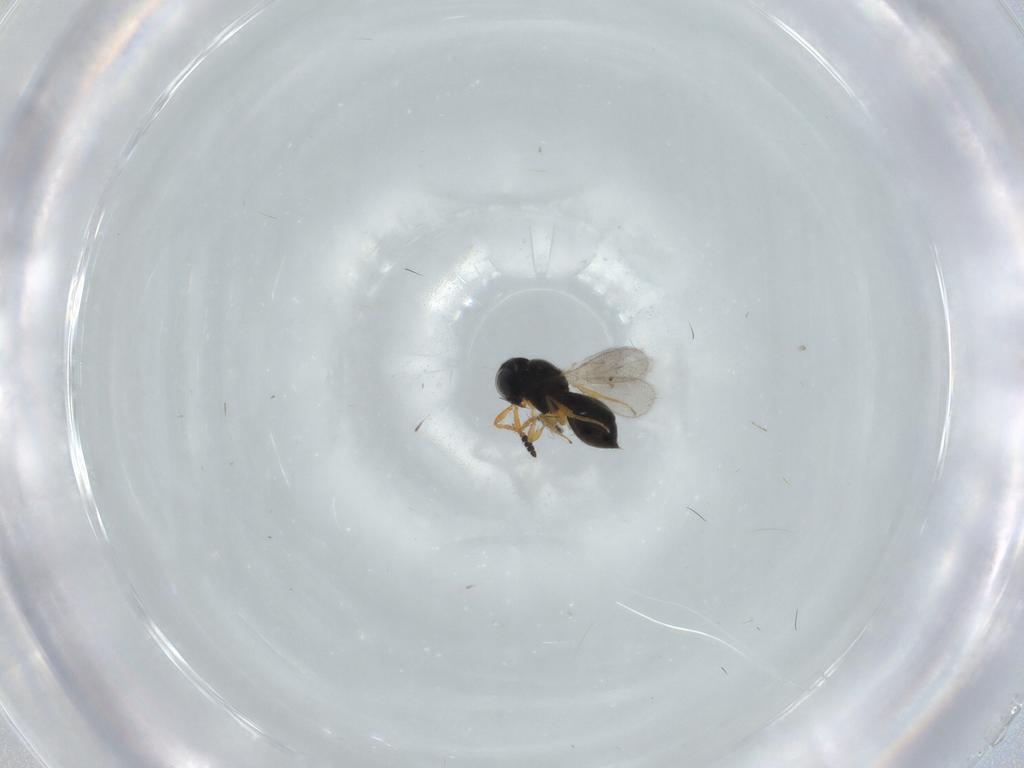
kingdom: Animalia
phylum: Arthropoda
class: Insecta
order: Hymenoptera
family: Scelionidae
